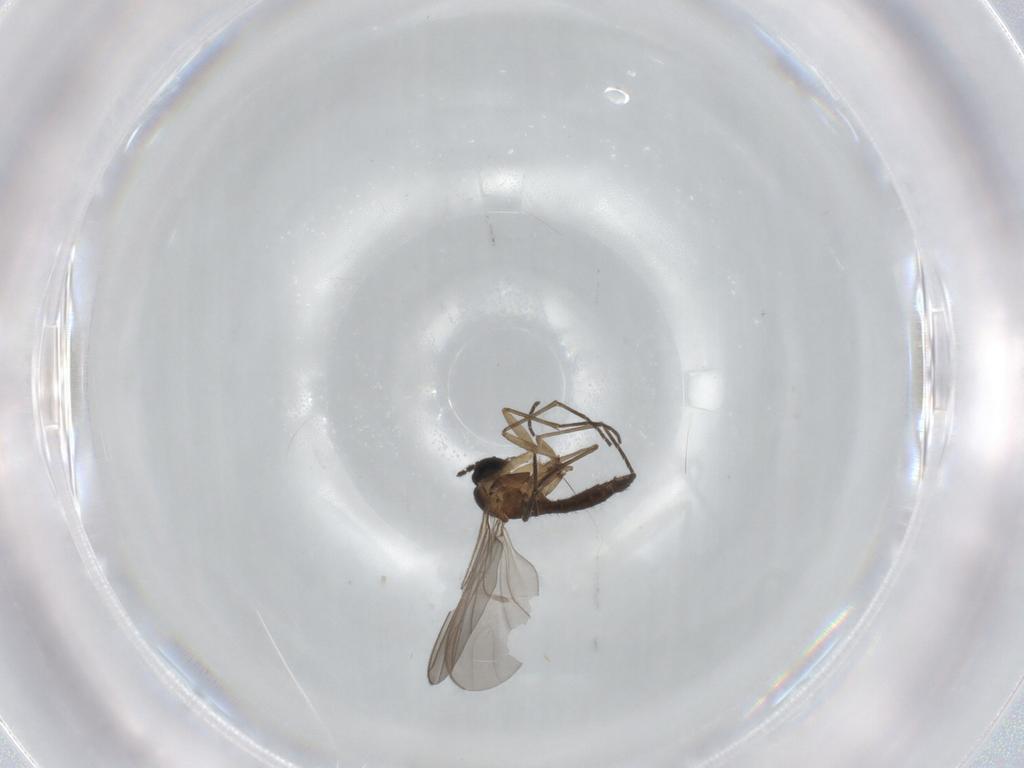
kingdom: Animalia
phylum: Arthropoda
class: Insecta
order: Diptera
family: Sciaridae
